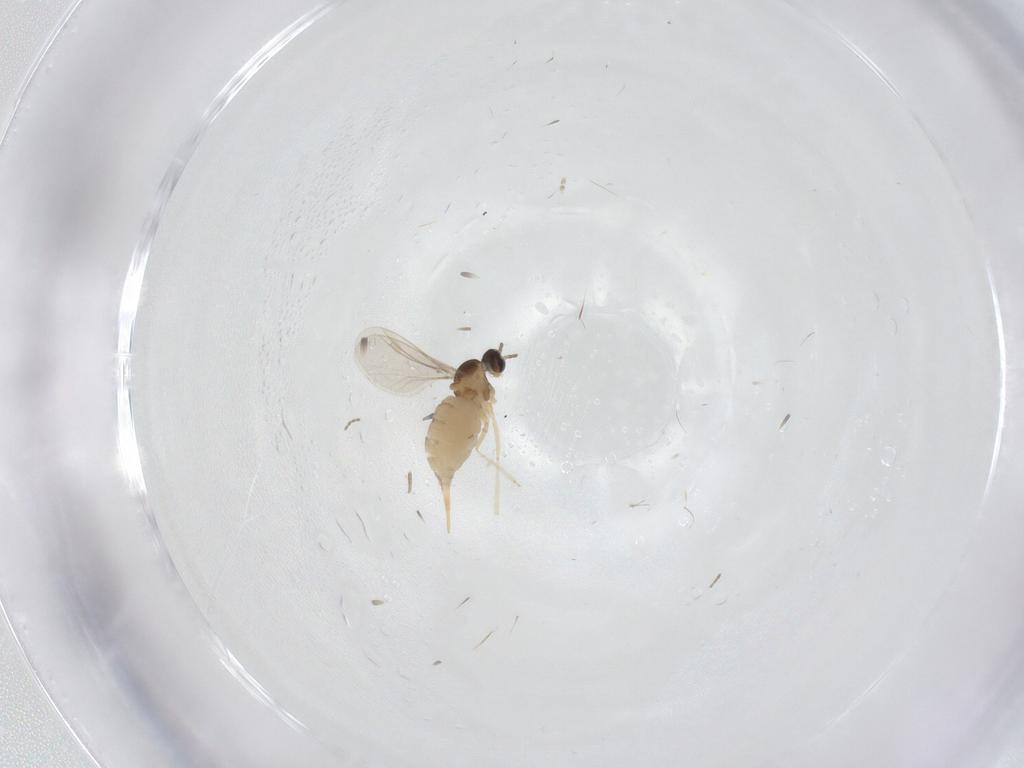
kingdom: Animalia
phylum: Arthropoda
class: Insecta
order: Diptera
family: Cecidomyiidae
